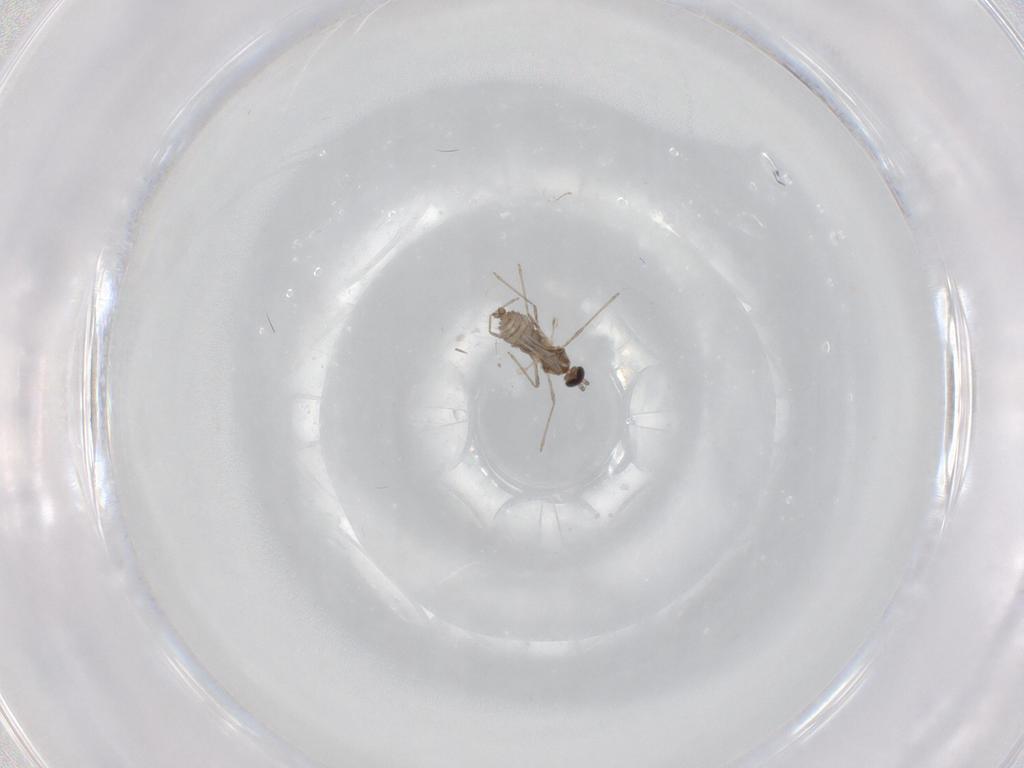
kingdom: Animalia
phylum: Arthropoda
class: Insecta
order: Diptera
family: Cecidomyiidae
